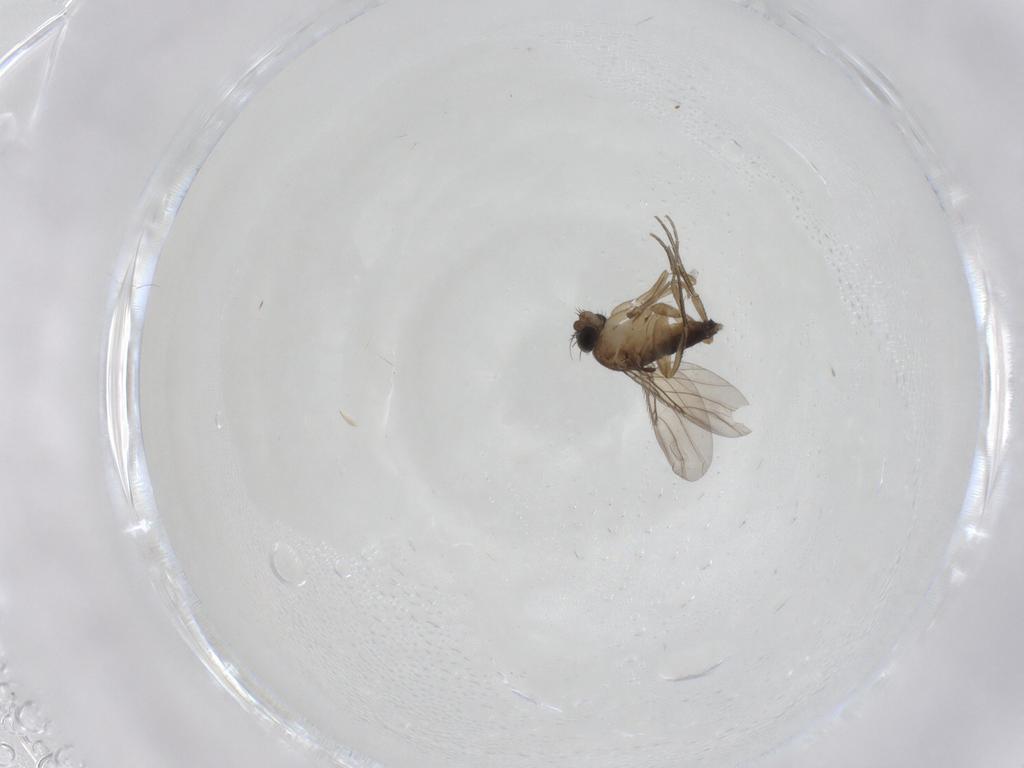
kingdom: Animalia
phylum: Arthropoda
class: Insecta
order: Diptera
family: Phoridae
